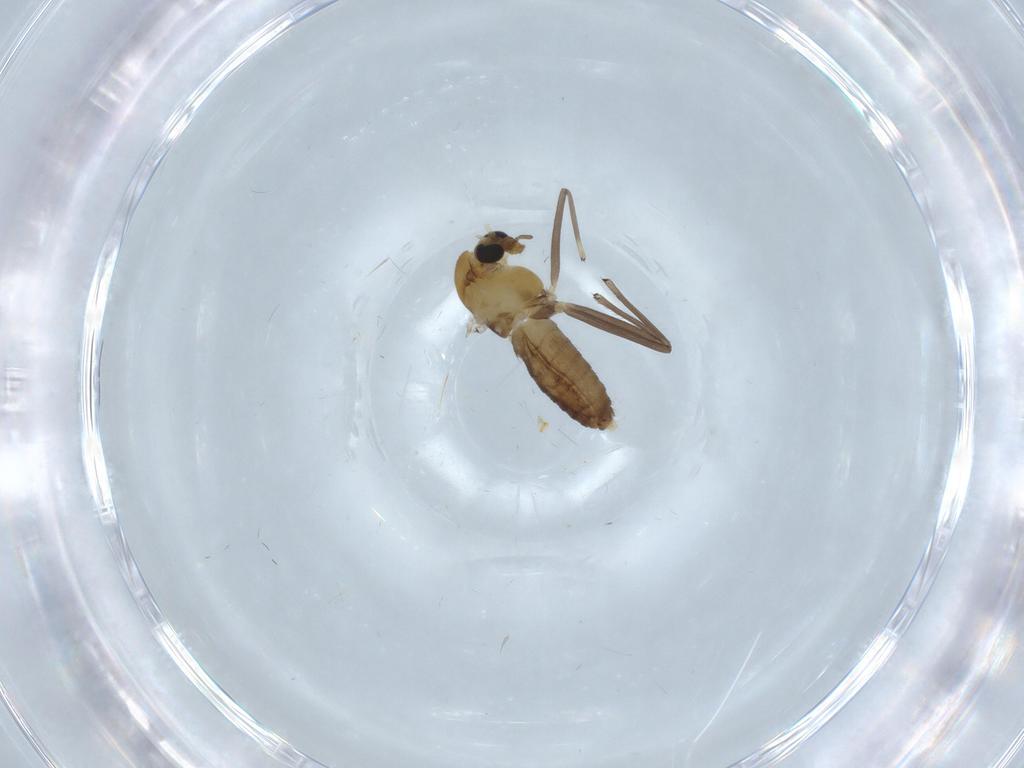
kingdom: Animalia
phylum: Arthropoda
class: Insecta
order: Diptera
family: Chironomidae
